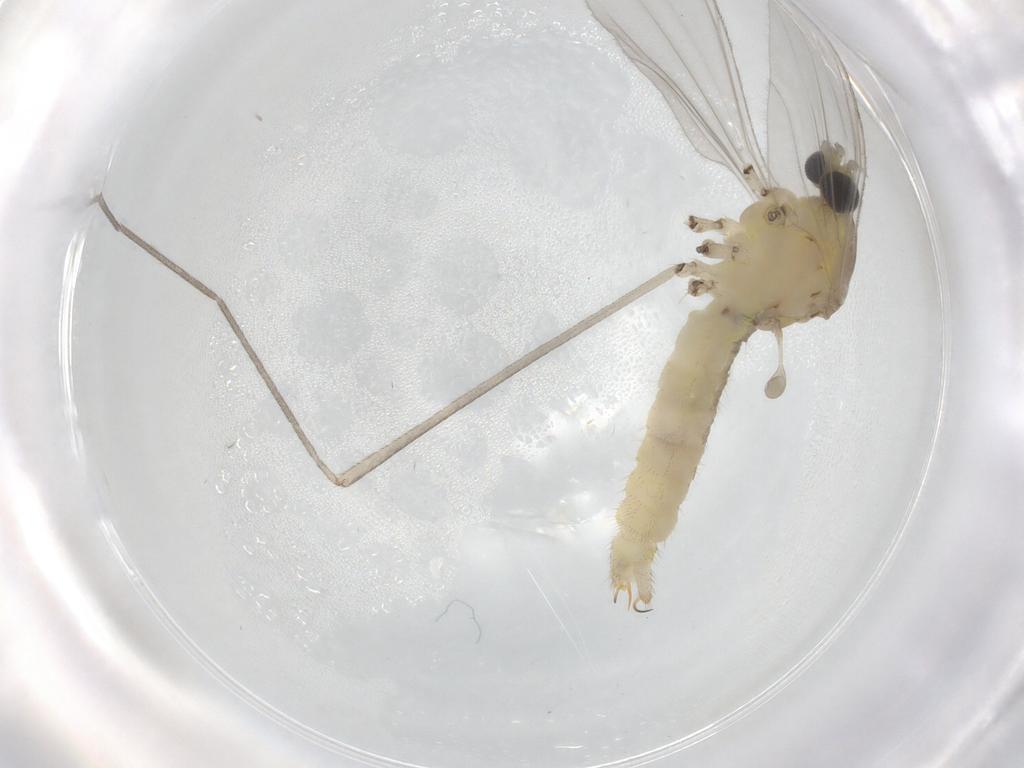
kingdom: Animalia
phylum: Arthropoda
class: Insecta
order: Diptera
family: Ceratopogonidae
